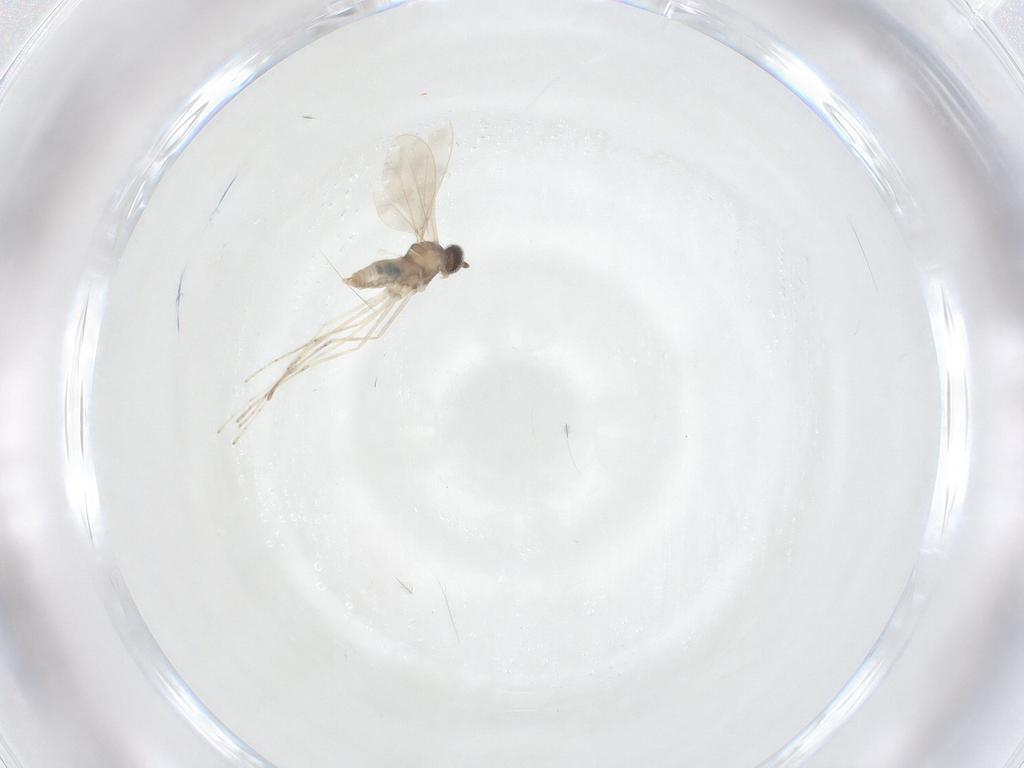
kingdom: Animalia
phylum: Arthropoda
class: Insecta
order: Diptera
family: Cecidomyiidae
